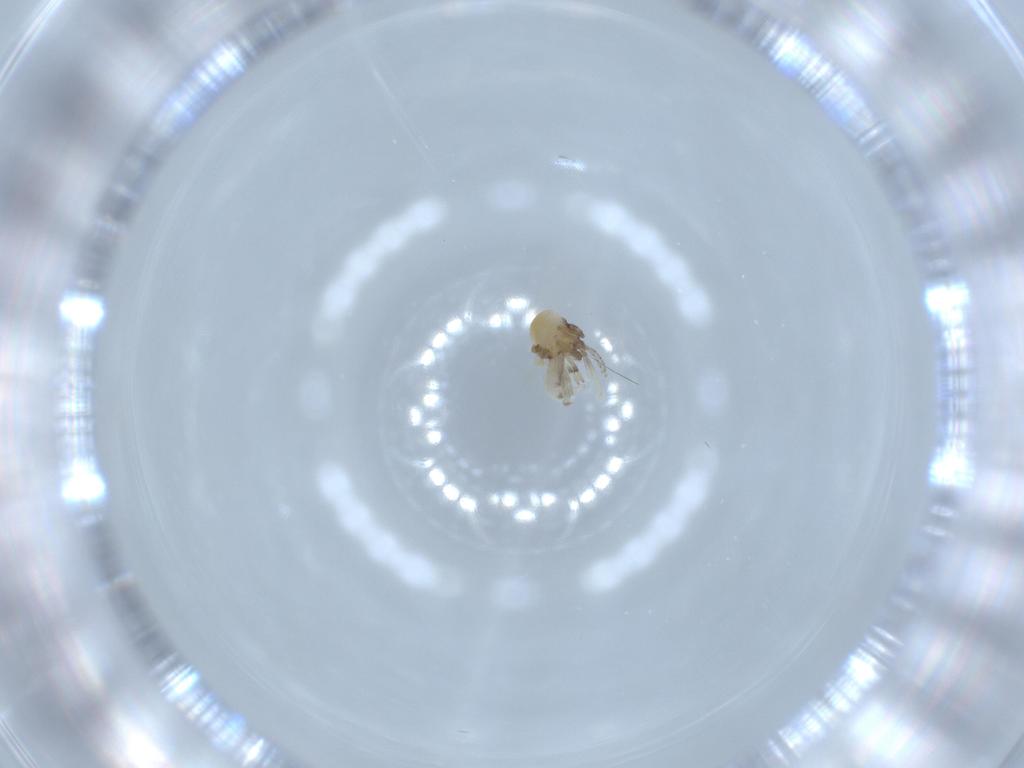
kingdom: Animalia
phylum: Arthropoda
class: Insecta
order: Diptera
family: Ceratopogonidae
